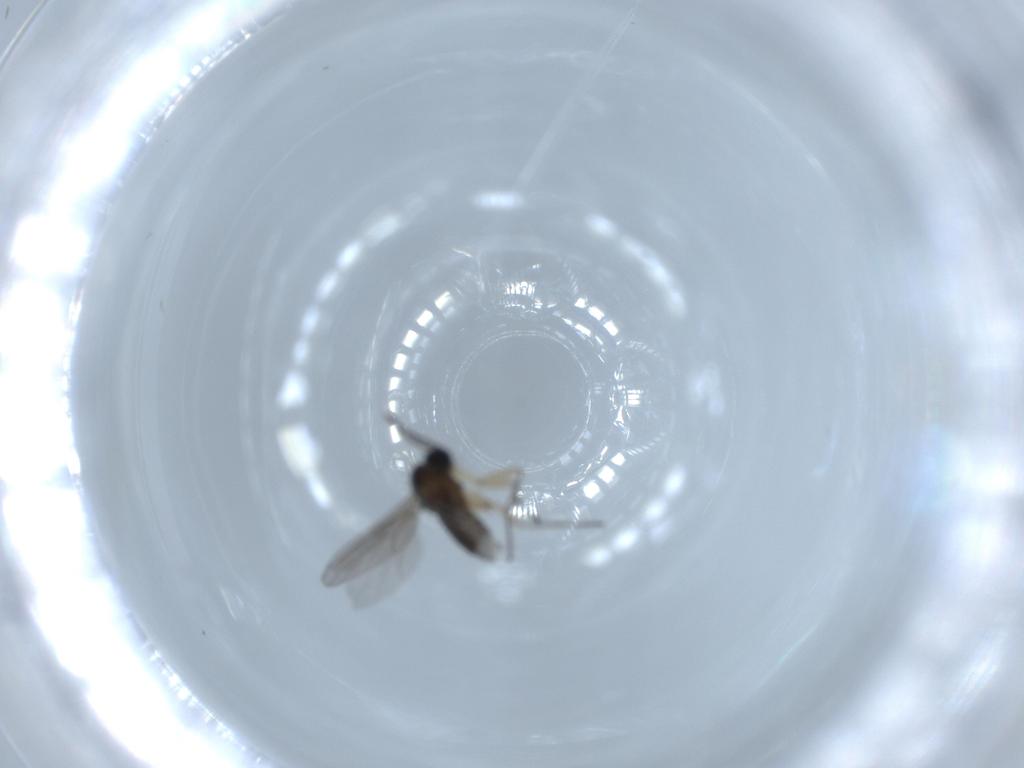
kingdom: Animalia
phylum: Arthropoda
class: Insecta
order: Diptera
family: Sciaridae
